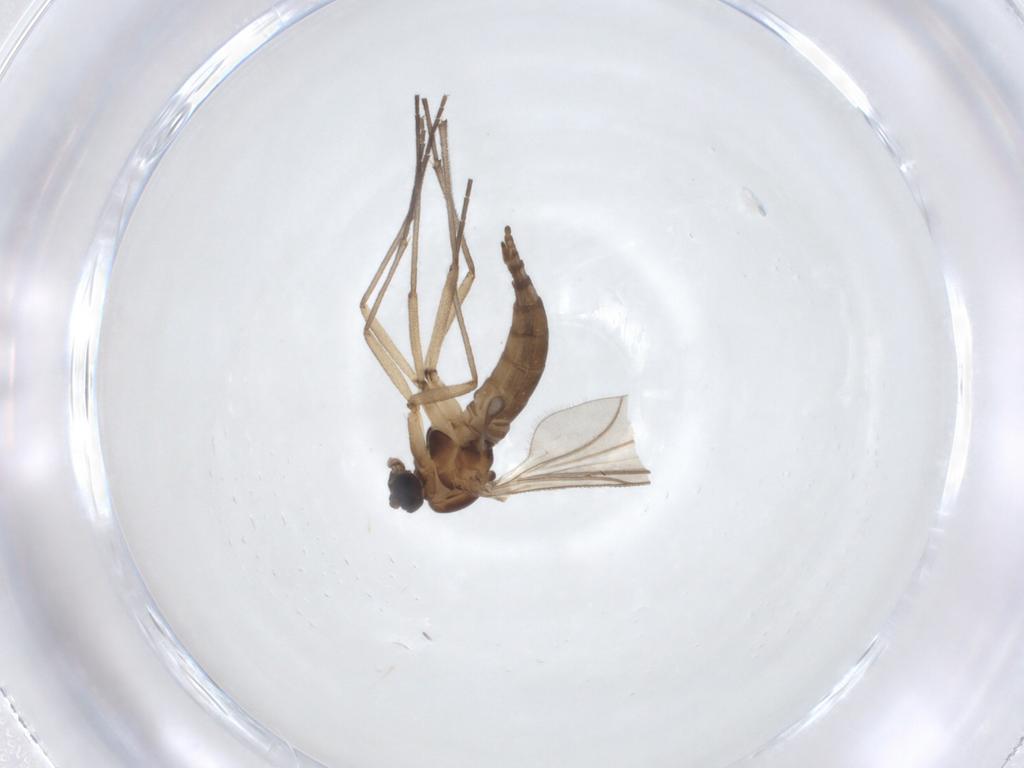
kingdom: Animalia
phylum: Arthropoda
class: Insecta
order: Diptera
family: Sciaridae
